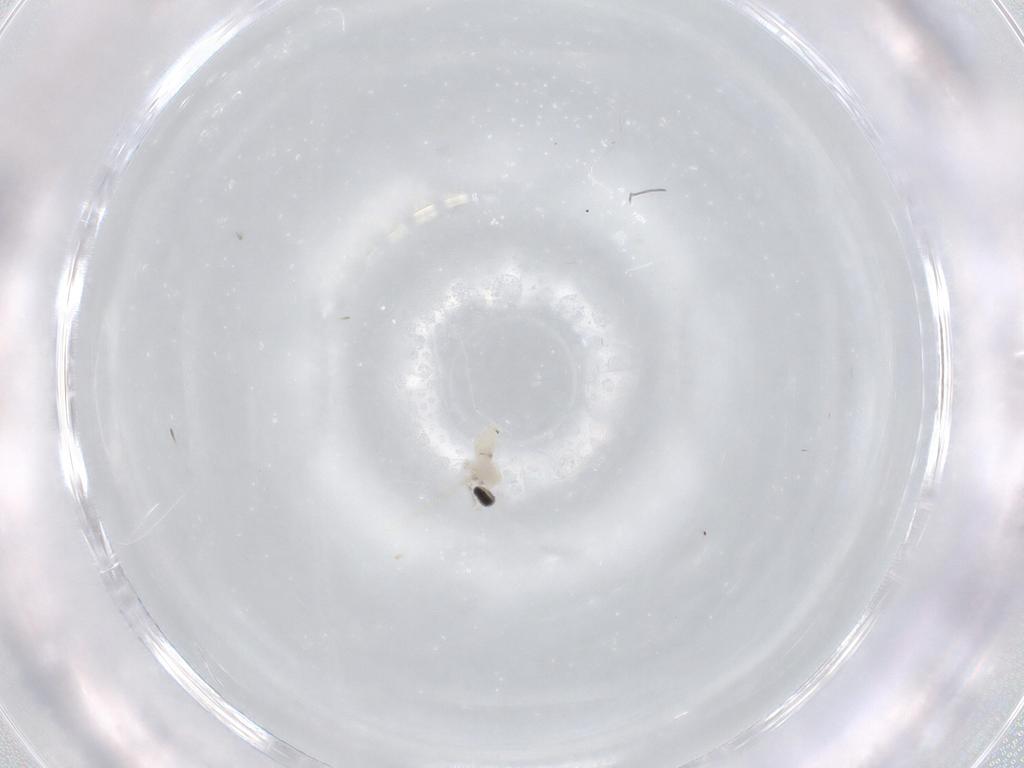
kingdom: Animalia
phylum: Arthropoda
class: Insecta
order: Diptera
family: Cecidomyiidae
